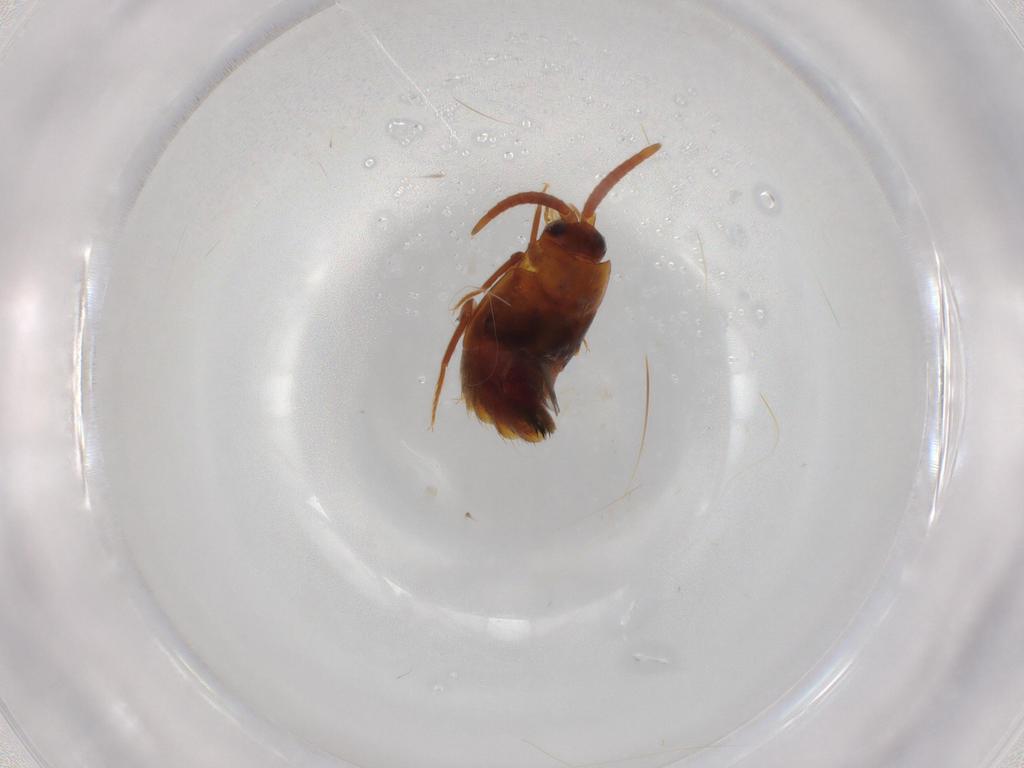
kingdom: Animalia
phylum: Arthropoda
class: Insecta
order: Coleoptera
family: Staphylinidae
